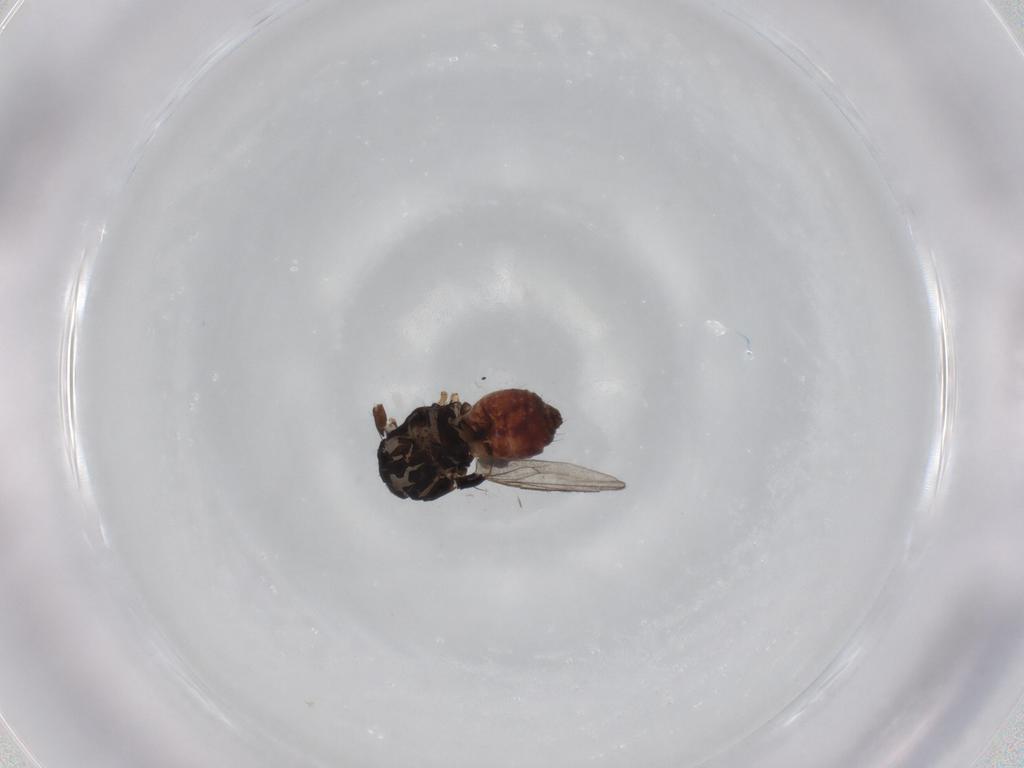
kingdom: Animalia
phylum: Arthropoda
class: Insecta
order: Diptera
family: Sphaeroceridae
